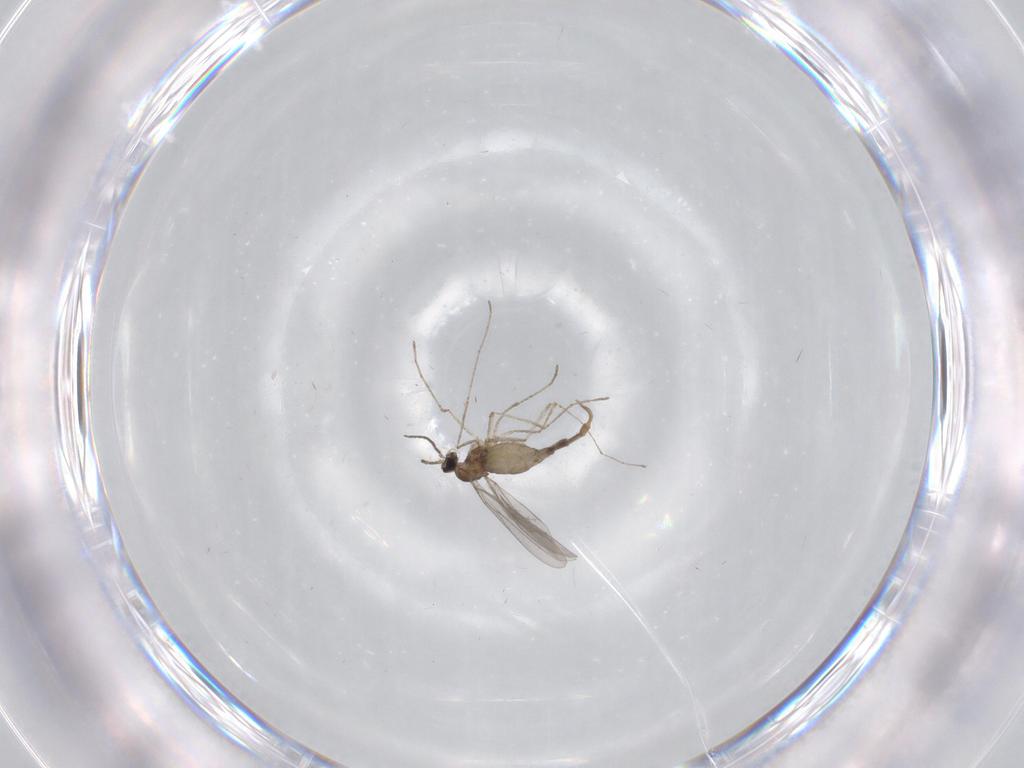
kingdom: Animalia
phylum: Arthropoda
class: Insecta
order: Diptera
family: Cecidomyiidae
